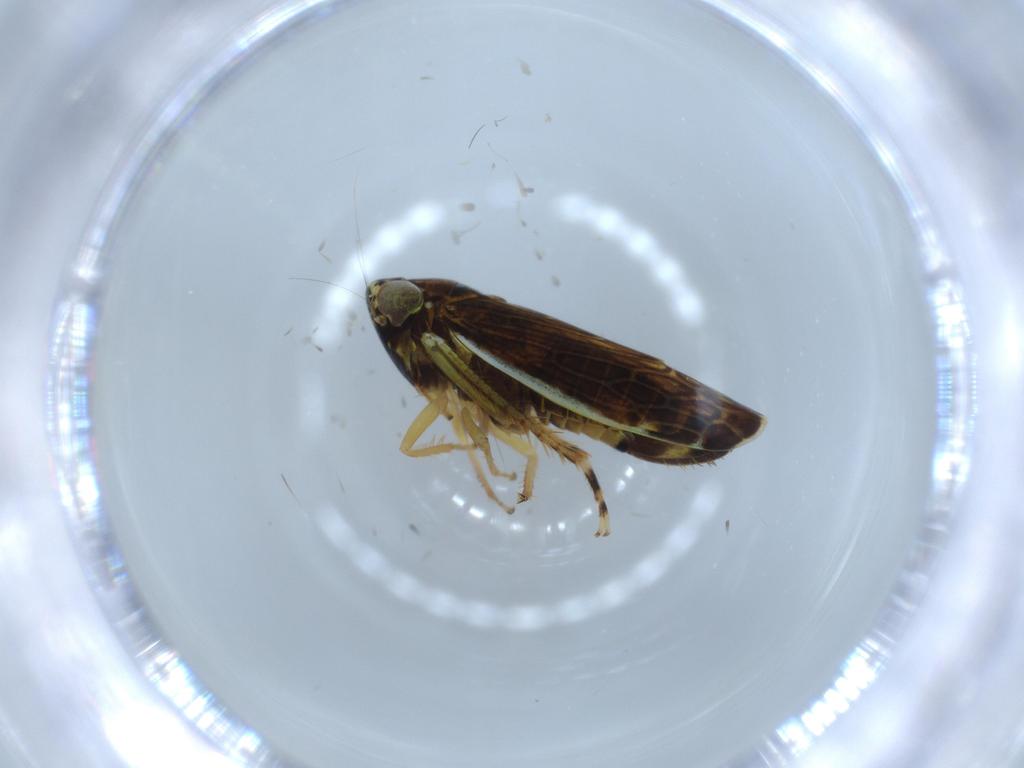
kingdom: Animalia
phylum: Arthropoda
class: Insecta
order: Hemiptera
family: Cicadellidae
